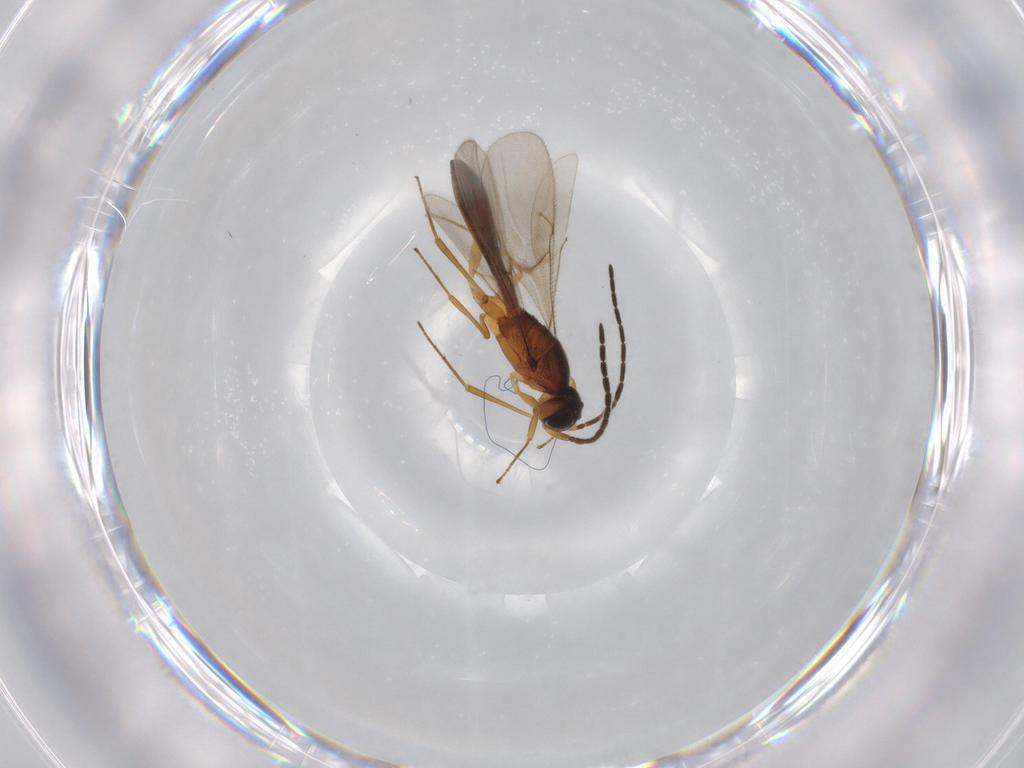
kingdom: Animalia
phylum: Arthropoda
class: Insecta
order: Hymenoptera
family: Scelionidae
